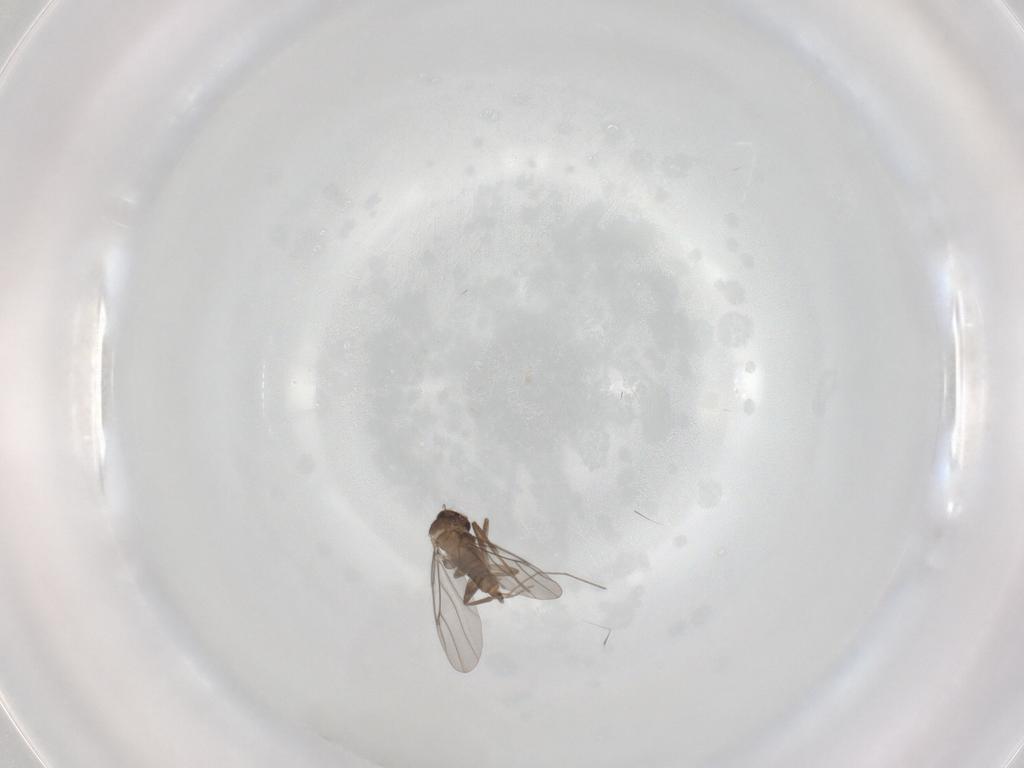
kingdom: Animalia
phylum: Arthropoda
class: Insecta
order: Diptera
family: Chironomidae
